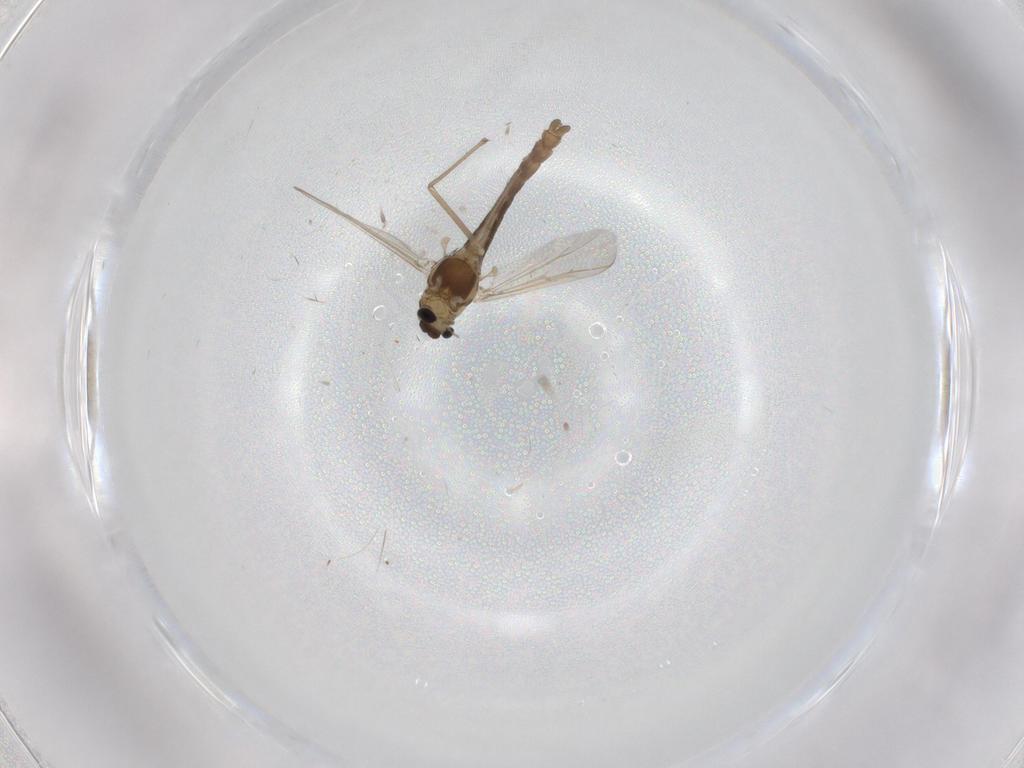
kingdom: Animalia
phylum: Arthropoda
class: Insecta
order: Diptera
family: Chironomidae
